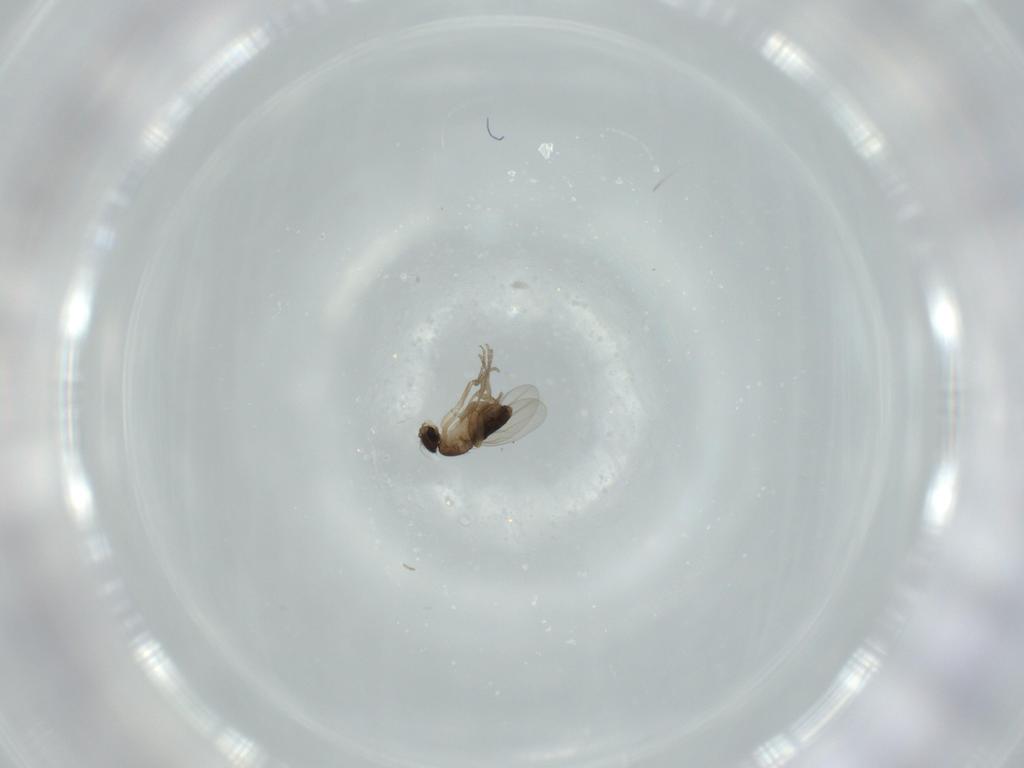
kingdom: Animalia
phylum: Arthropoda
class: Insecta
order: Diptera
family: Phoridae
